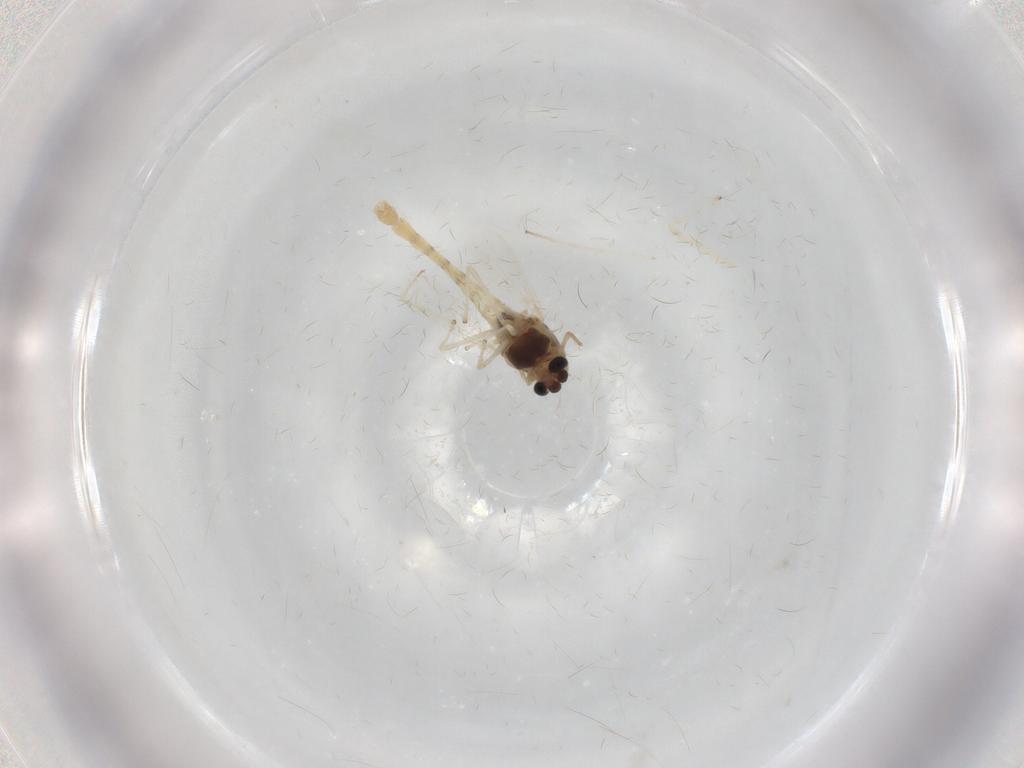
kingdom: Animalia
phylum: Arthropoda
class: Insecta
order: Diptera
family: Chironomidae
